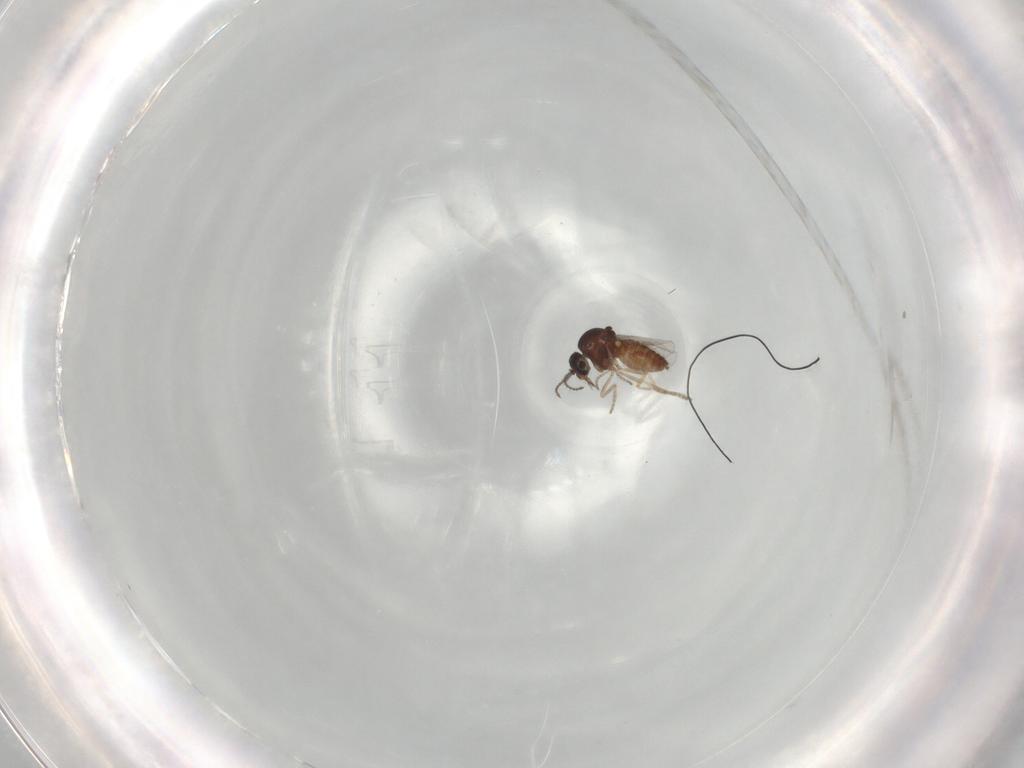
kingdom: Animalia
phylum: Arthropoda
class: Insecta
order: Diptera
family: Ceratopogonidae
